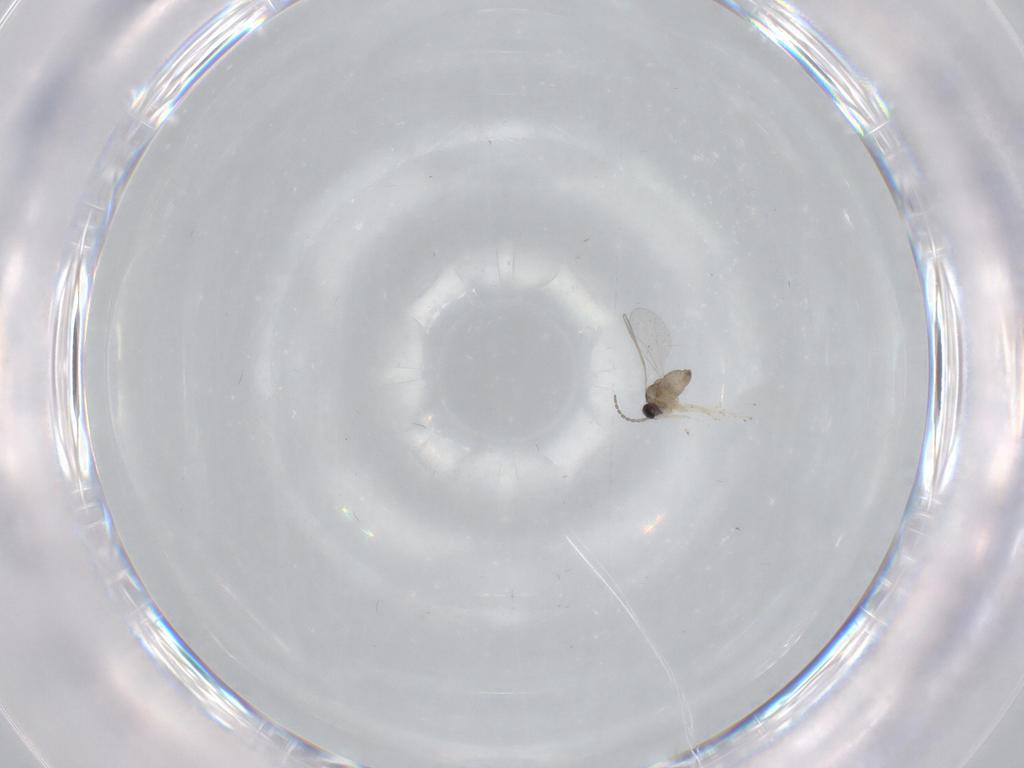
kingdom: Animalia
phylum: Arthropoda
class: Insecta
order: Diptera
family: Cecidomyiidae
